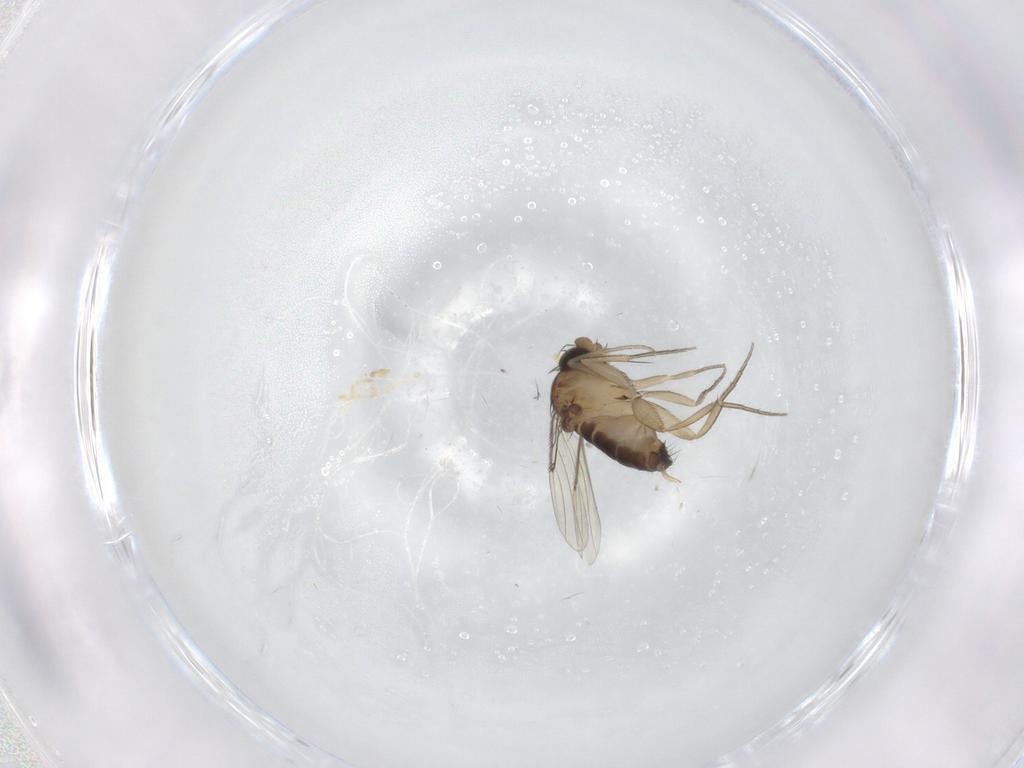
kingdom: Animalia
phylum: Arthropoda
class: Insecta
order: Diptera
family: Phoridae
